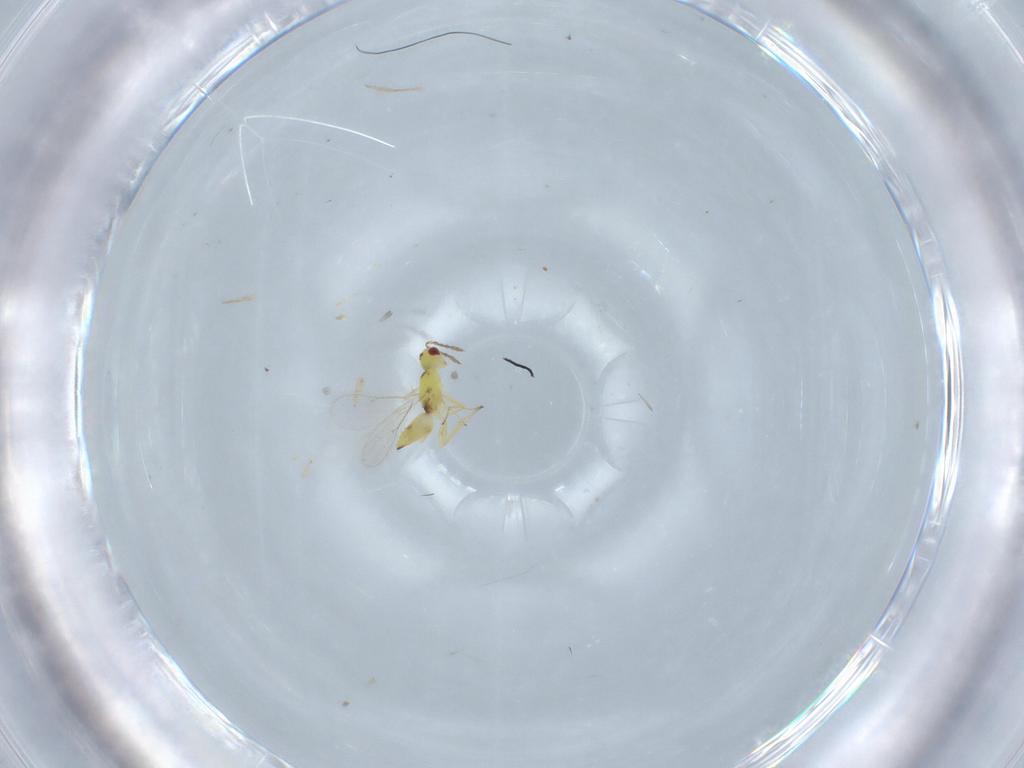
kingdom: Animalia
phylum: Arthropoda
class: Insecta
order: Hymenoptera
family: Eulophidae
